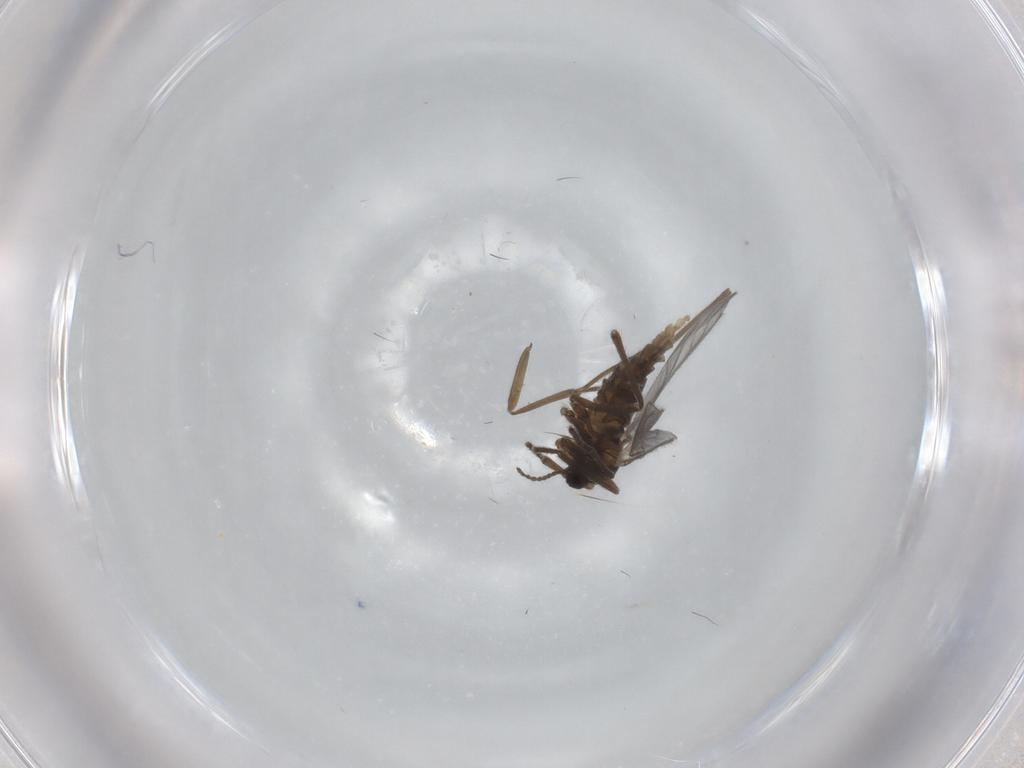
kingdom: Animalia
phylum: Arthropoda
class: Insecta
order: Diptera
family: Cecidomyiidae
